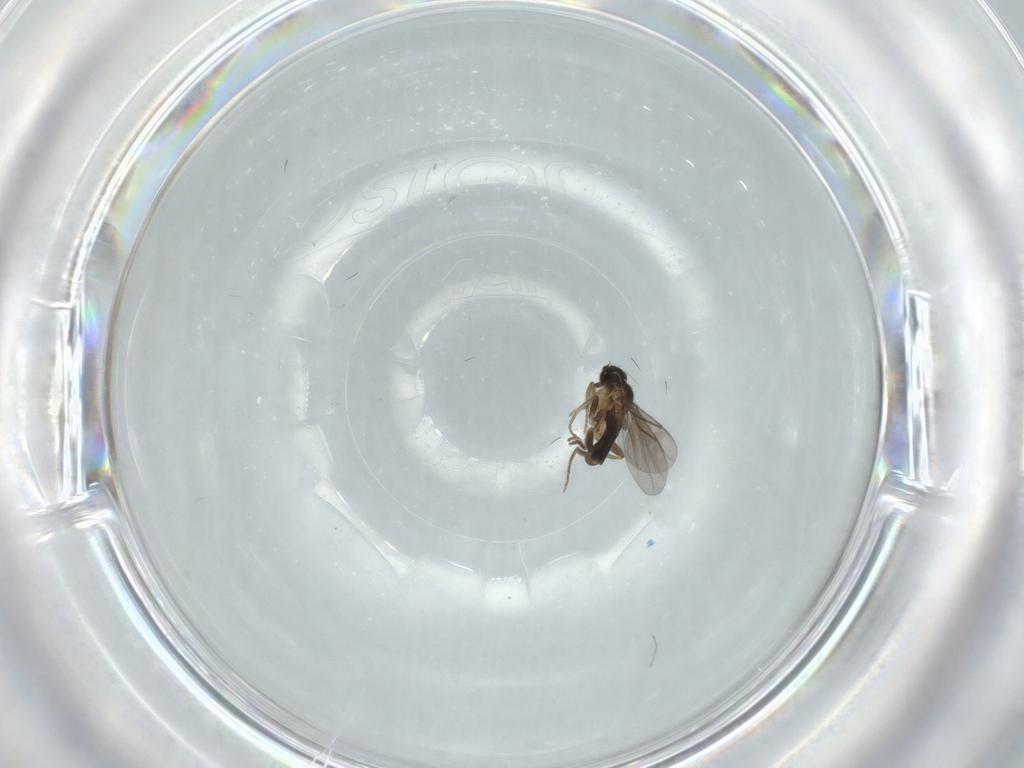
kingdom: Animalia
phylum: Arthropoda
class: Insecta
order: Diptera
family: Cecidomyiidae
